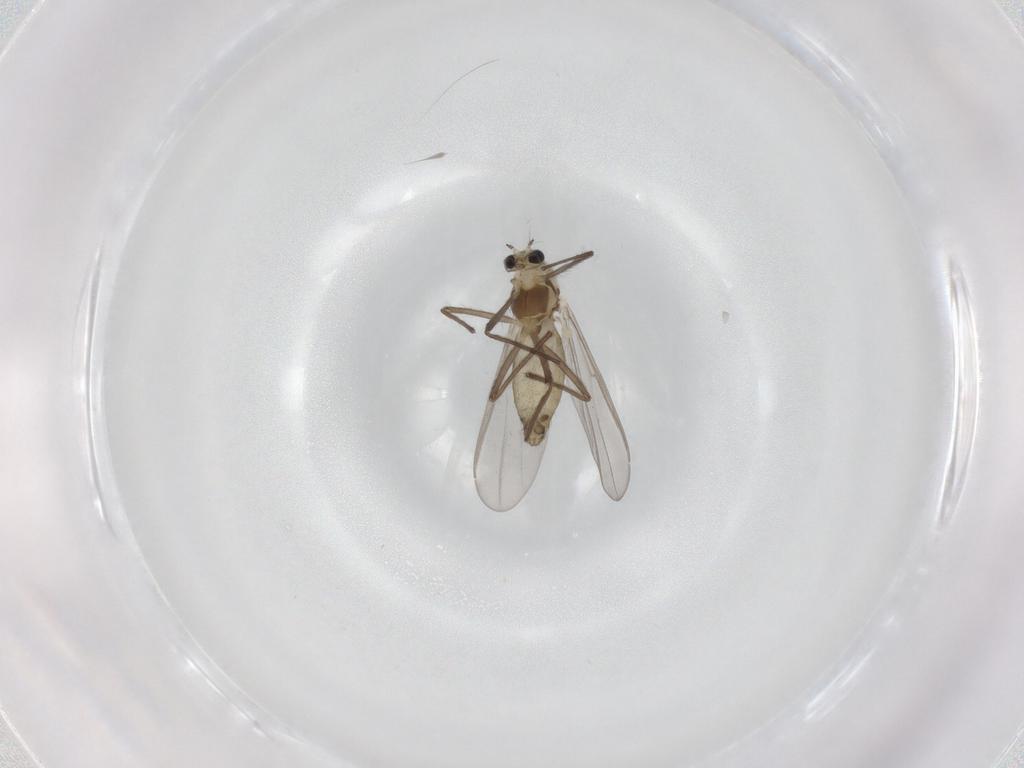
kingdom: Animalia
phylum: Arthropoda
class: Insecta
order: Diptera
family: Chironomidae
